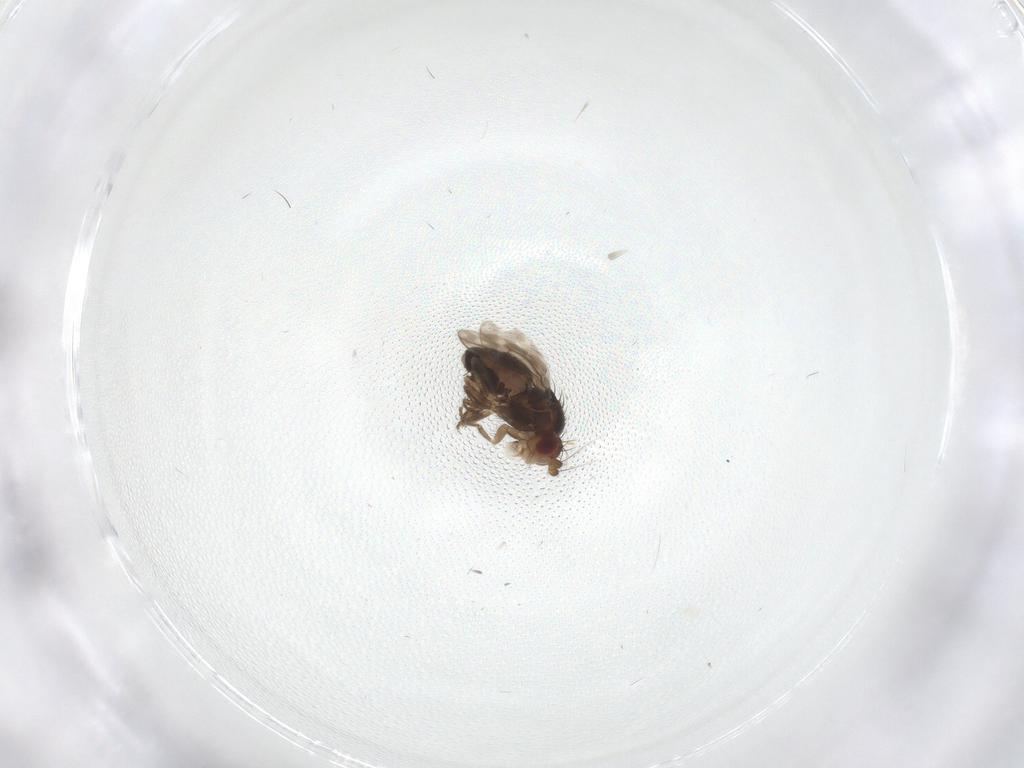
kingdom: Animalia
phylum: Arthropoda
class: Insecta
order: Diptera
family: Sphaeroceridae
